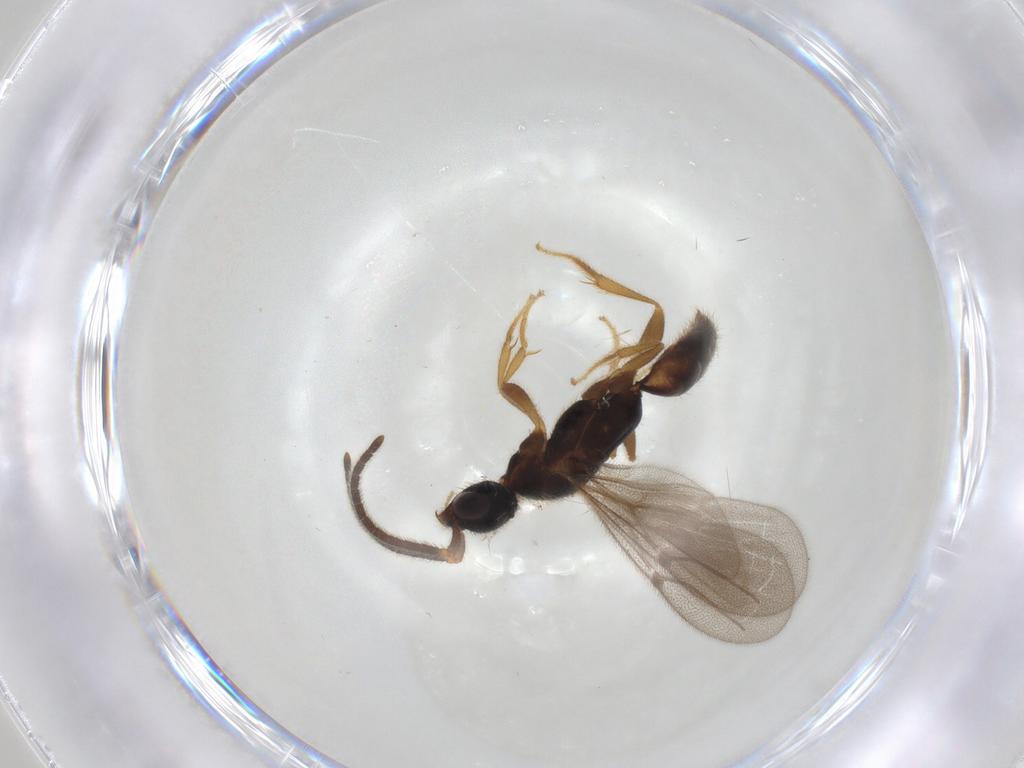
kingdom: Animalia
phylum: Arthropoda
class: Insecta
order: Hymenoptera
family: Bethylidae
